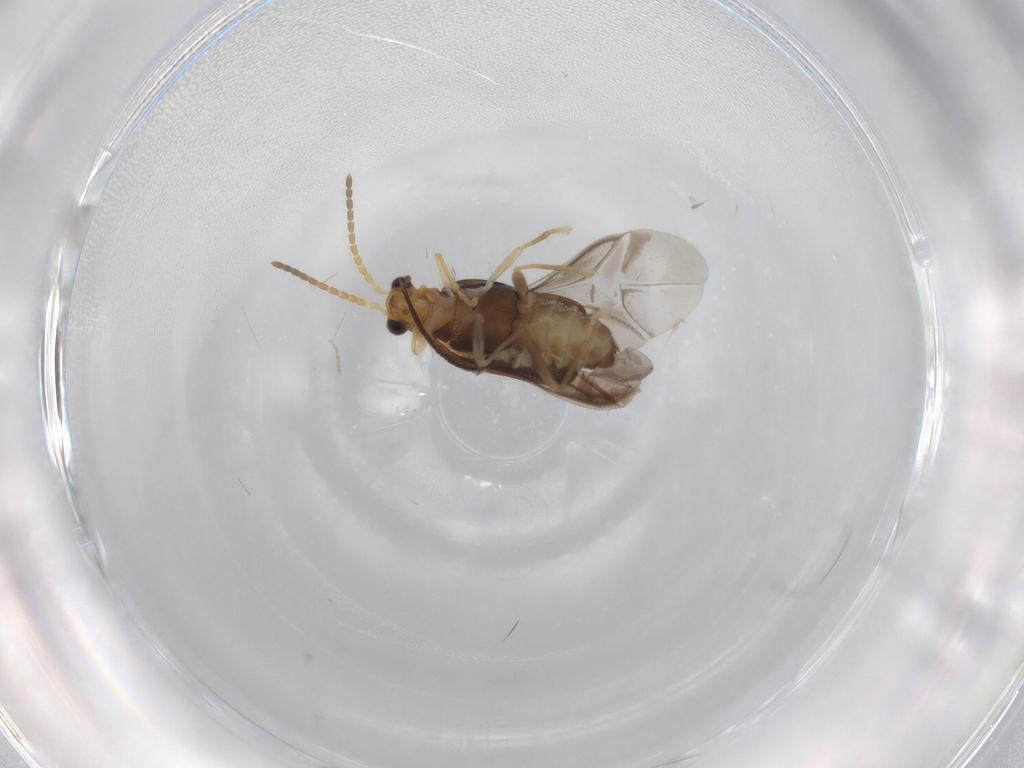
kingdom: Animalia
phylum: Arthropoda
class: Insecta
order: Coleoptera
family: Cantharidae
